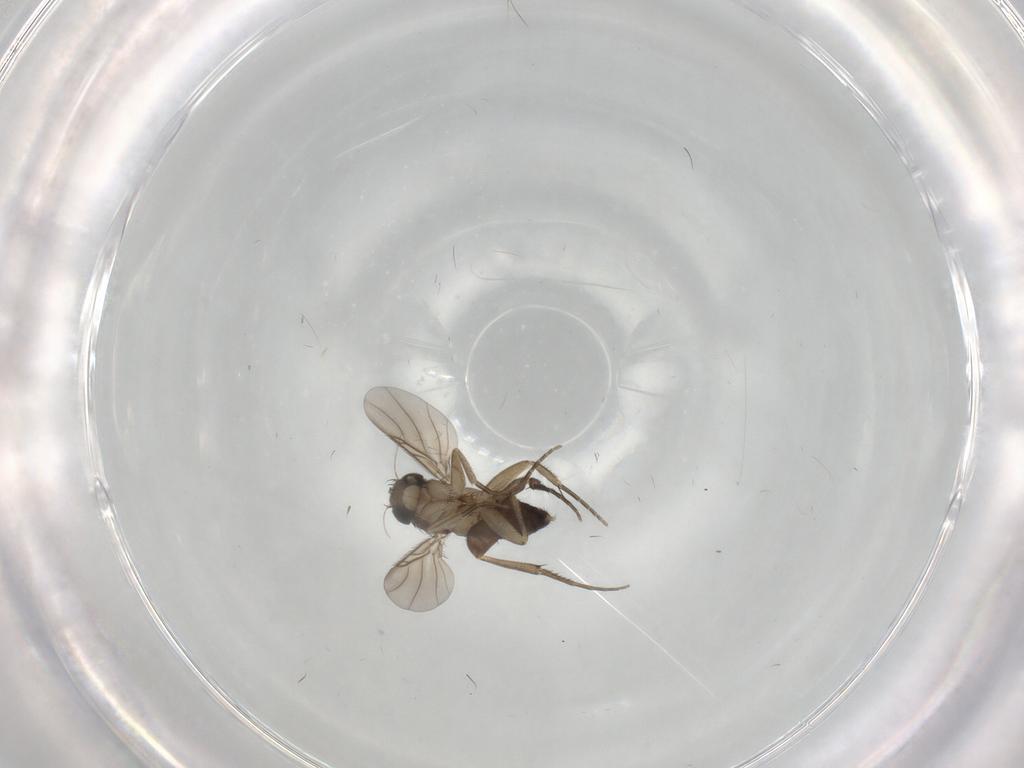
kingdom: Animalia
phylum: Arthropoda
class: Insecta
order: Diptera
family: Phoridae
